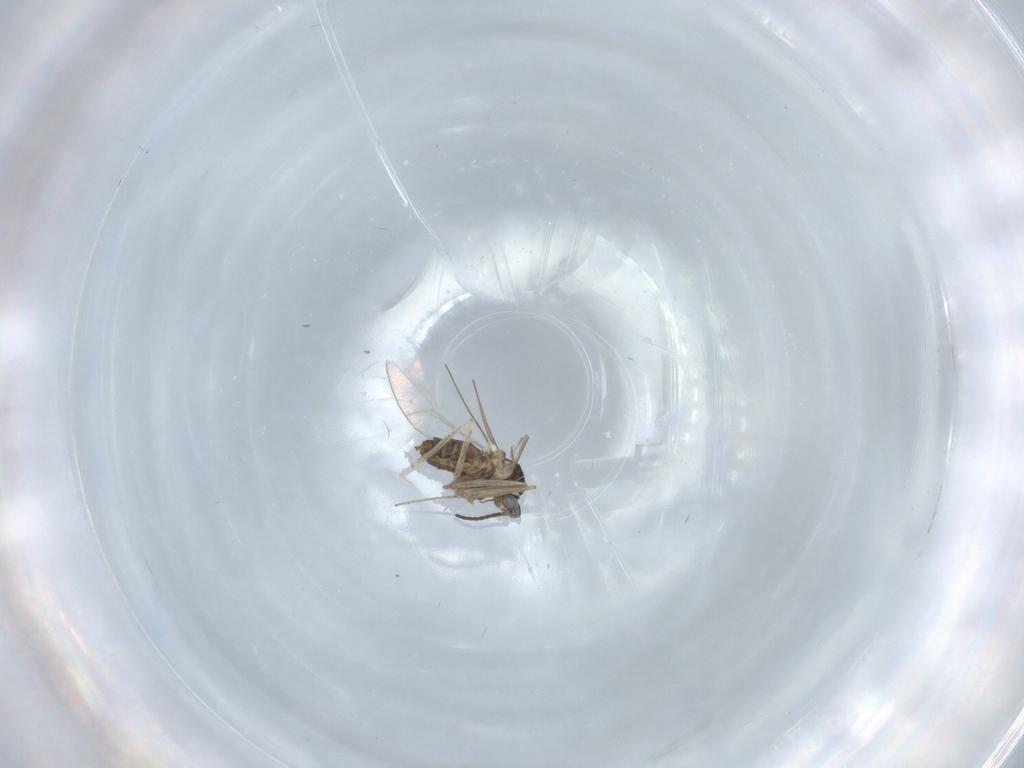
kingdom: Animalia
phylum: Arthropoda
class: Insecta
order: Diptera
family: Cecidomyiidae
